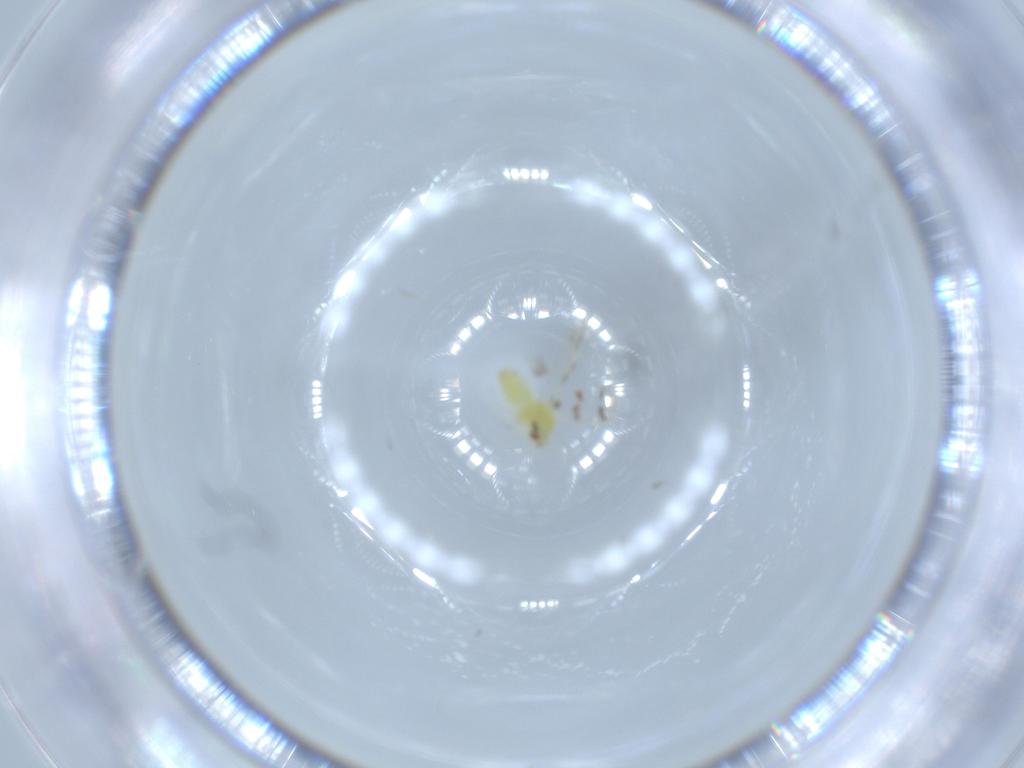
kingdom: Animalia
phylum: Arthropoda
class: Insecta
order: Hemiptera
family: Aleyrodidae
